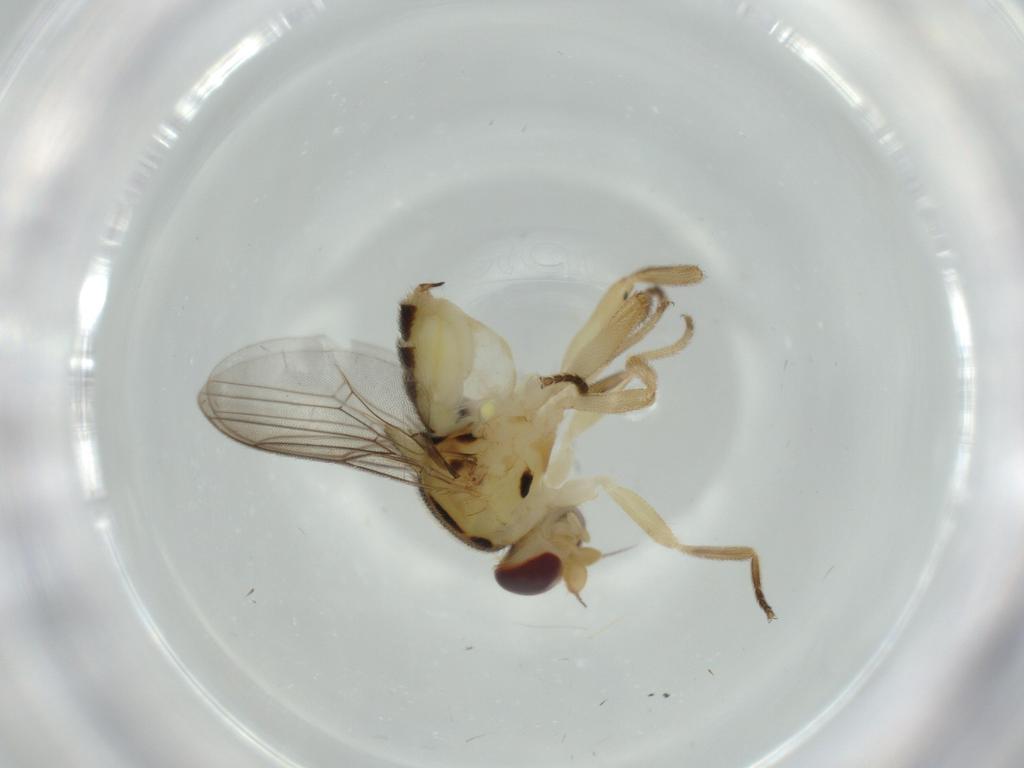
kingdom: Animalia
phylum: Arthropoda
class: Insecta
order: Diptera
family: Chloropidae
